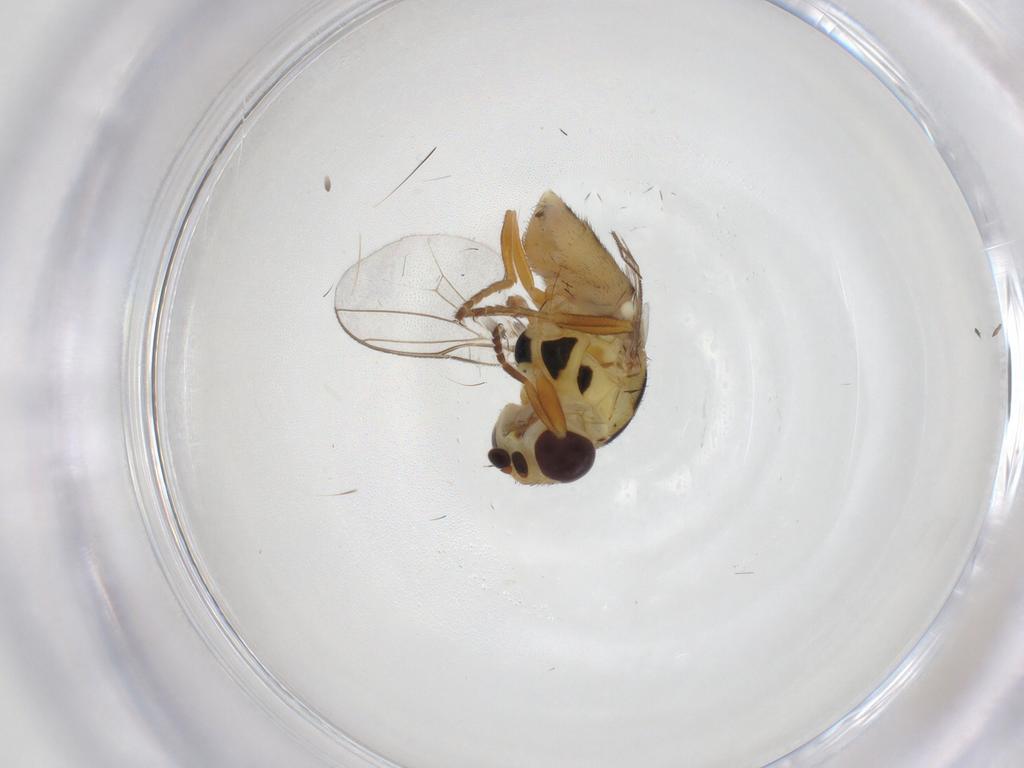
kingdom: Animalia
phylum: Arthropoda
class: Insecta
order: Diptera
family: Chloropidae
